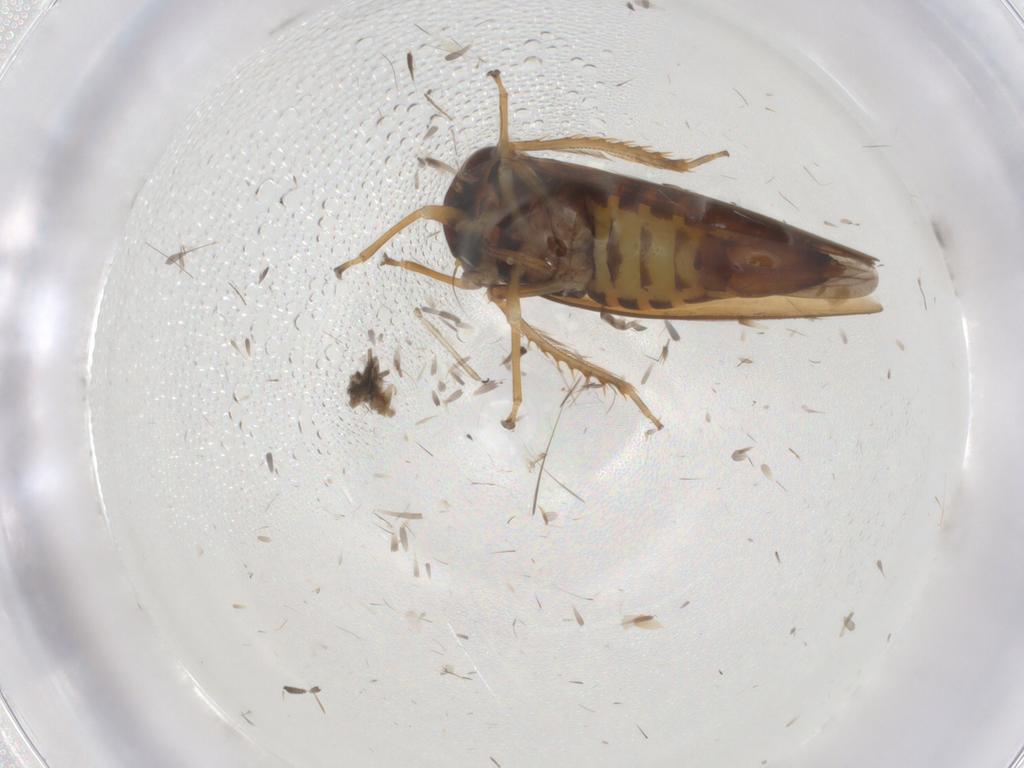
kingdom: Animalia
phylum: Arthropoda
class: Insecta
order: Hemiptera
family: Cicadellidae
